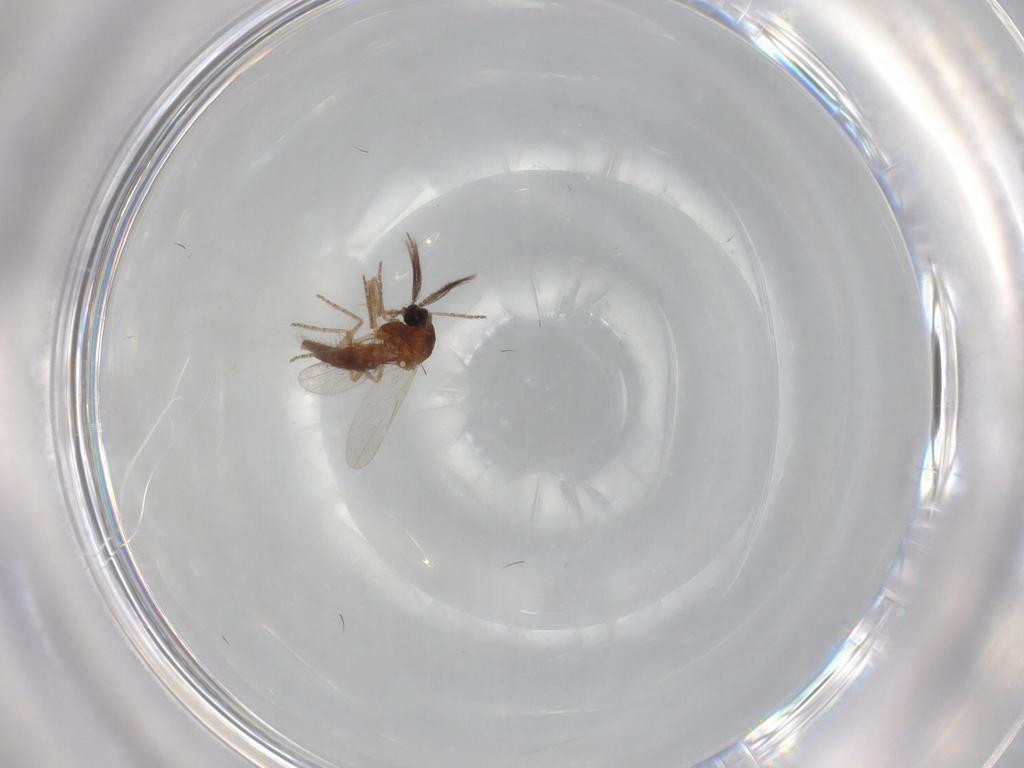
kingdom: Animalia
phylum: Arthropoda
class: Insecta
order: Diptera
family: Ceratopogonidae
